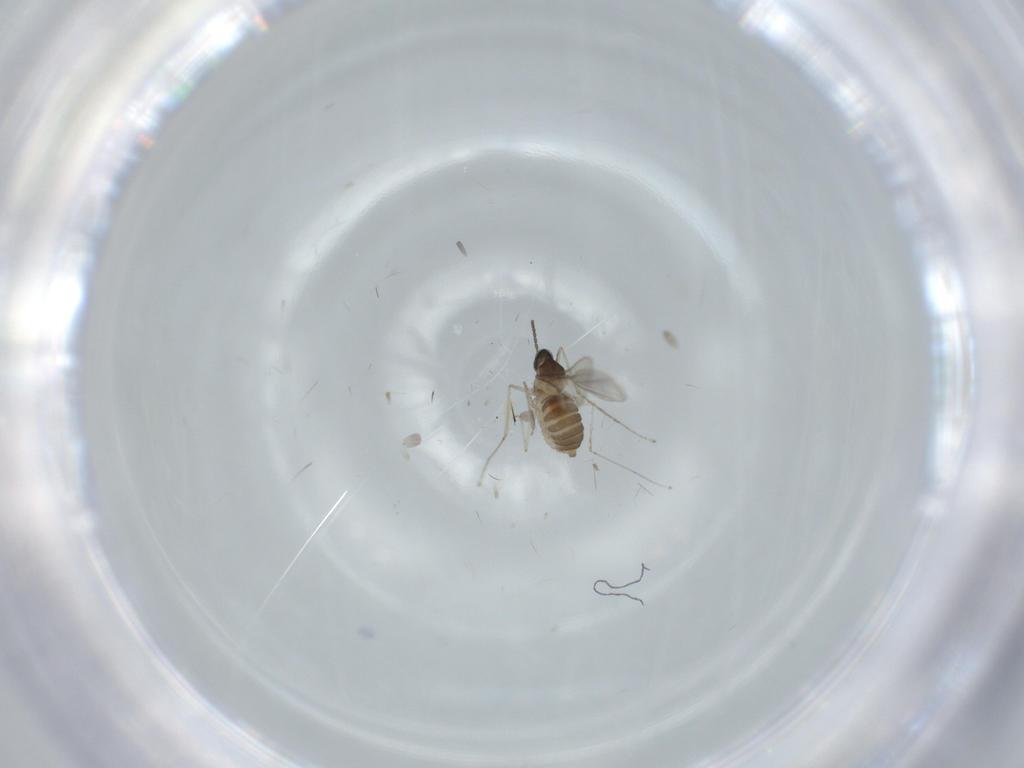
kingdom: Animalia
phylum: Arthropoda
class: Insecta
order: Diptera
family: Cecidomyiidae
